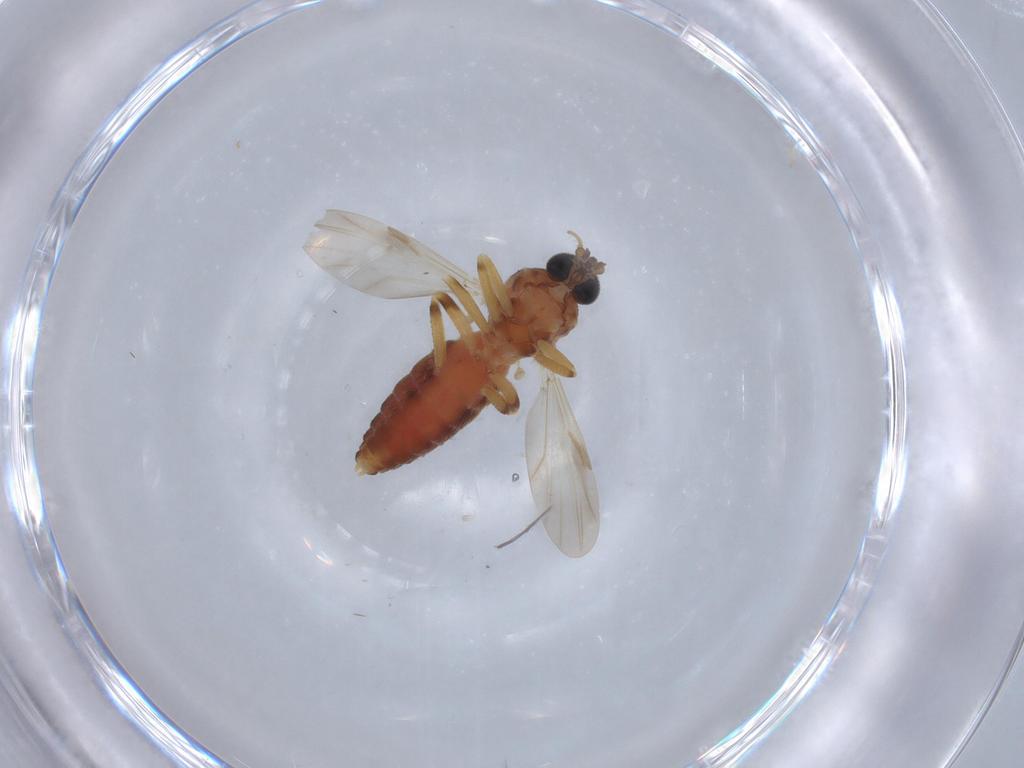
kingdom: Animalia
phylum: Arthropoda
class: Insecta
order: Diptera
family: Ceratopogonidae
